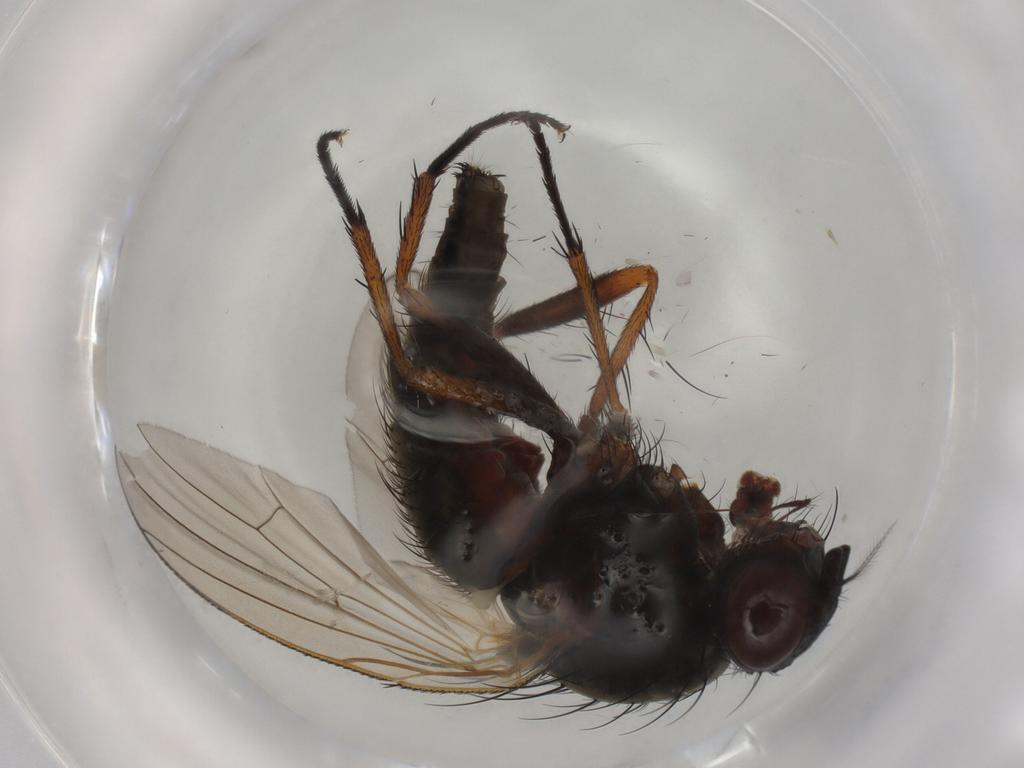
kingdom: Animalia
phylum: Arthropoda
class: Insecta
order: Diptera
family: Anthomyiidae
